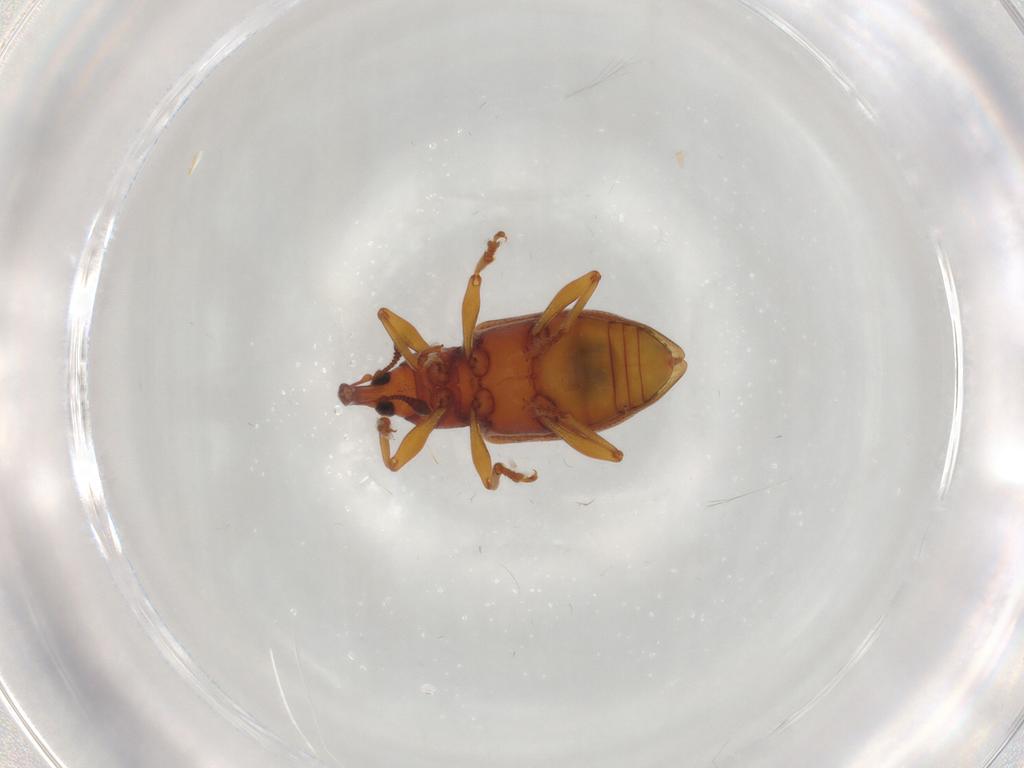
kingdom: Animalia
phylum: Arthropoda
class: Insecta
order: Coleoptera
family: Curculionidae
